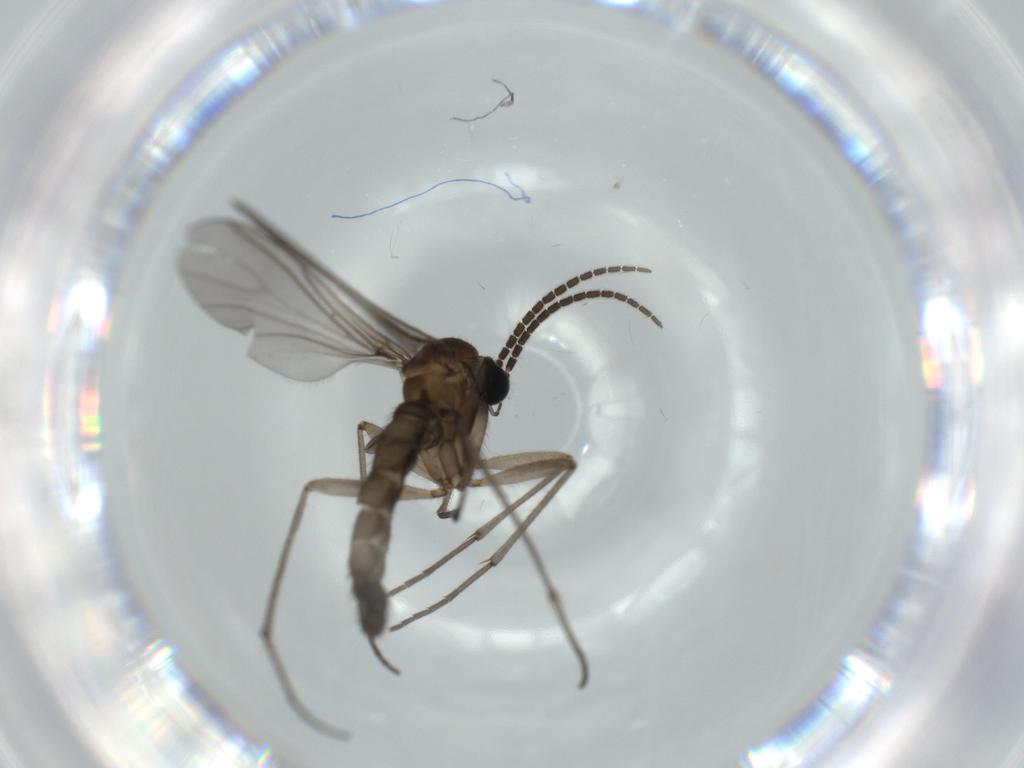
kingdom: Animalia
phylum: Arthropoda
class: Insecta
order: Diptera
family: Sciaridae
